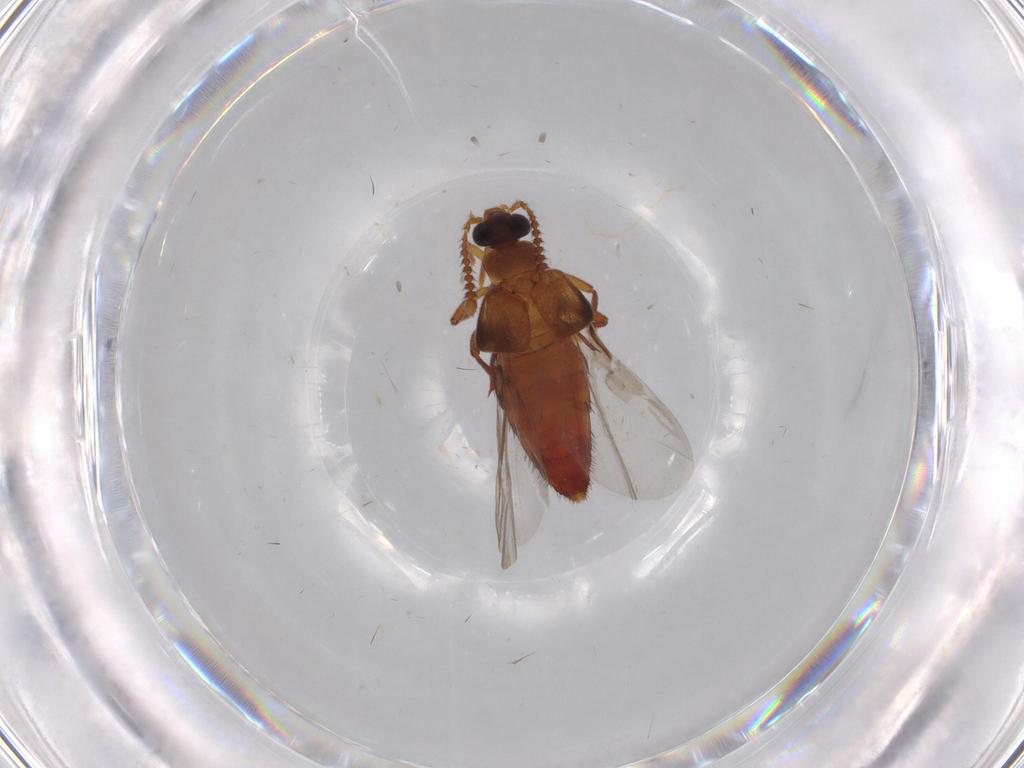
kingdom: Animalia
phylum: Arthropoda
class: Insecta
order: Coleoptera
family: Staphylinidae
